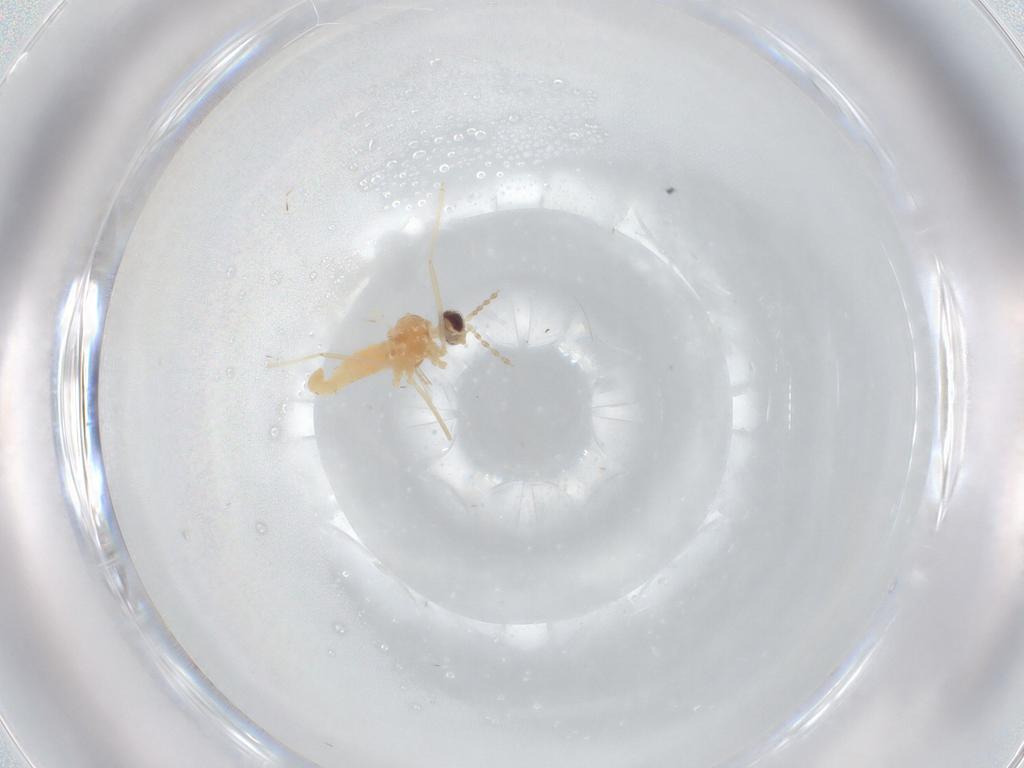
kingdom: Animalia
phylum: Arthropoda
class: Insecta
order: Diptera
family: Cecidomyiidae
